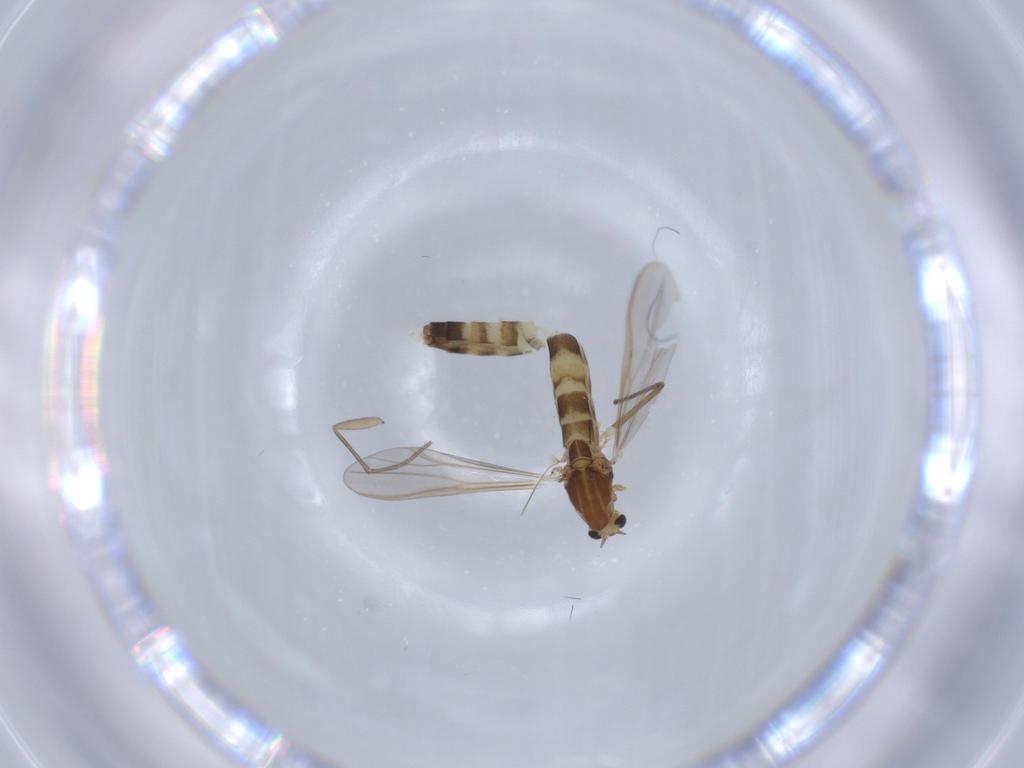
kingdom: Animalia
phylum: Arthropoda
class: Insecta
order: Diptera
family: Chironomidae
